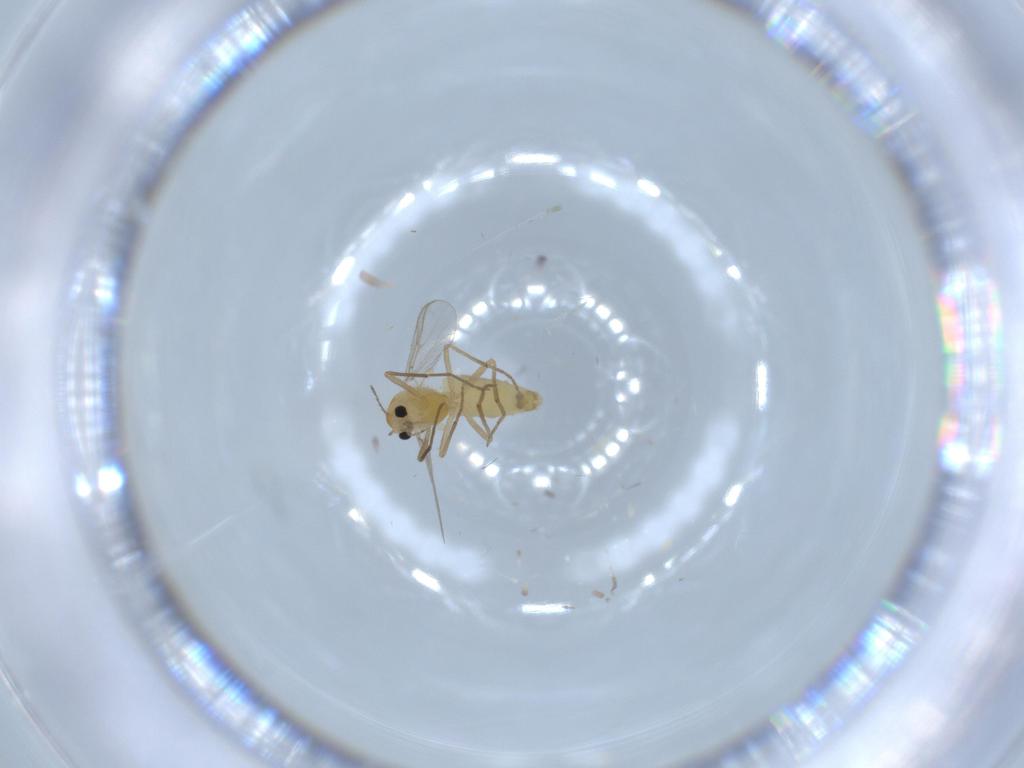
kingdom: Animalia
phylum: Arthropoda
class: Insecta
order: Diptera
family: Chironomidae
